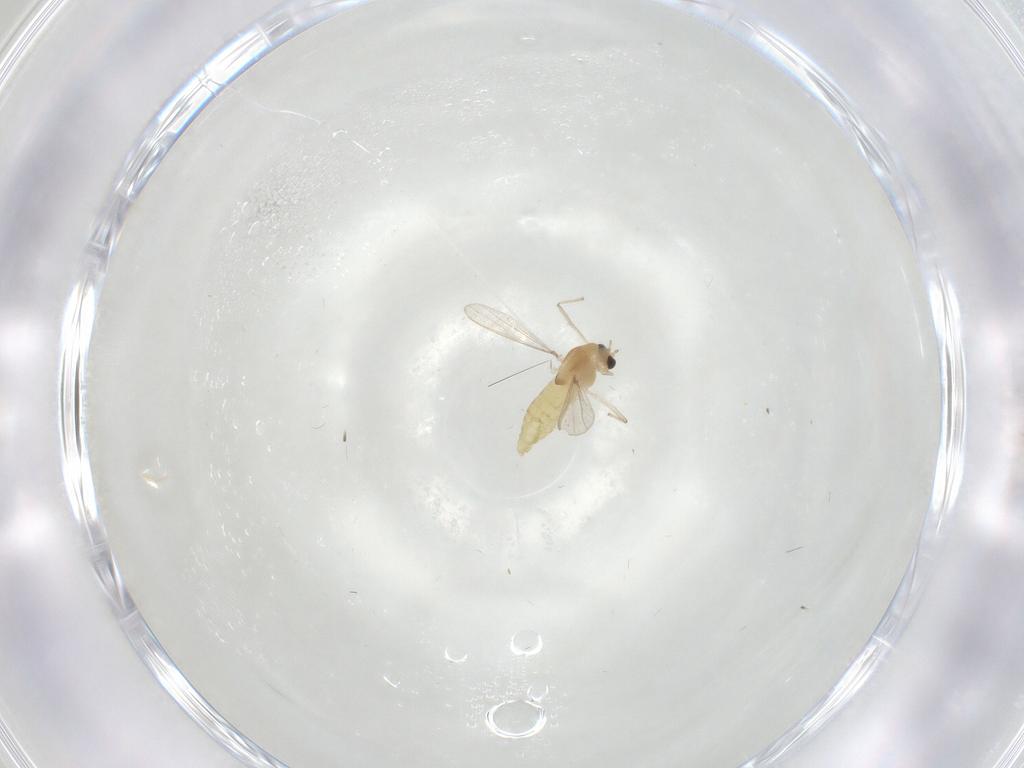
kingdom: Animalia
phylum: Arthropoda
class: Insecta
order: Diptera
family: Chironomidae
